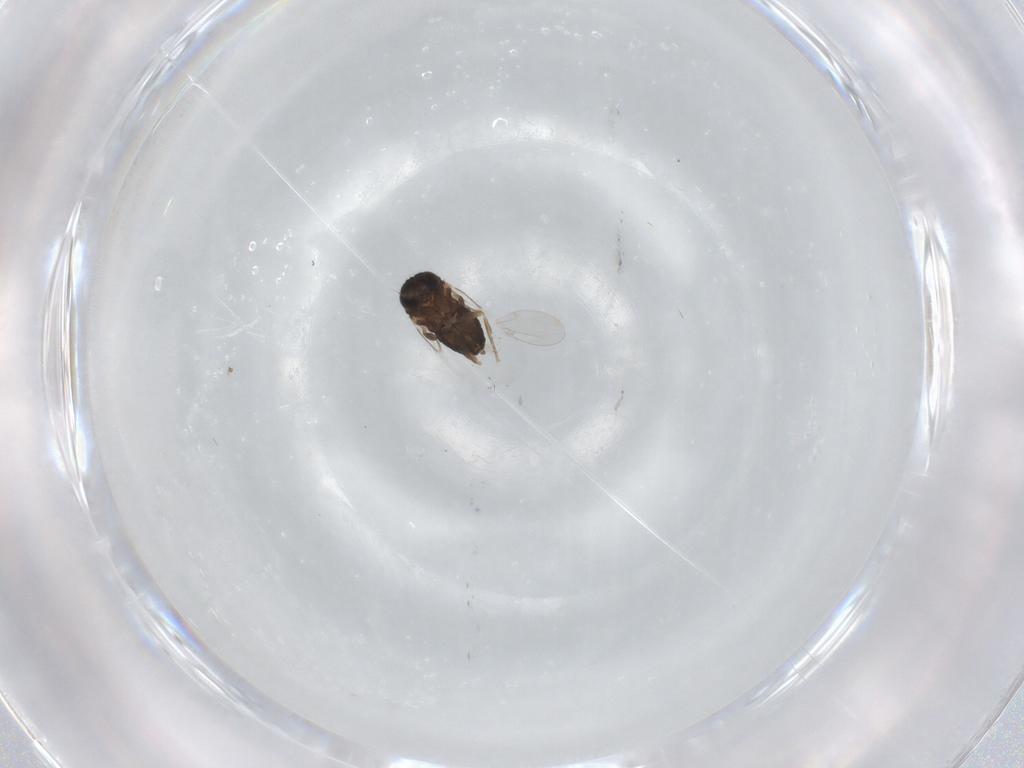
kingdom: Animalia
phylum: Arthropoda
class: Insecta
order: Diptera
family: Phoridae
